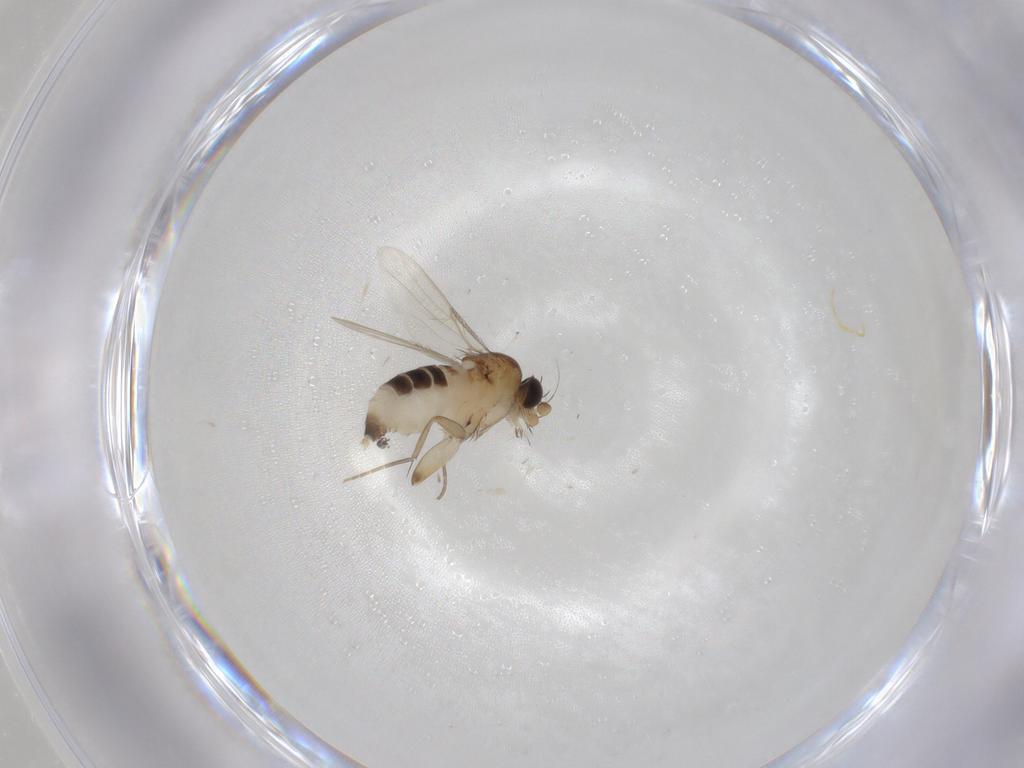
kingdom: Animalia
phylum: Arthropoda
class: Insecta
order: Diptera
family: Phoridae
